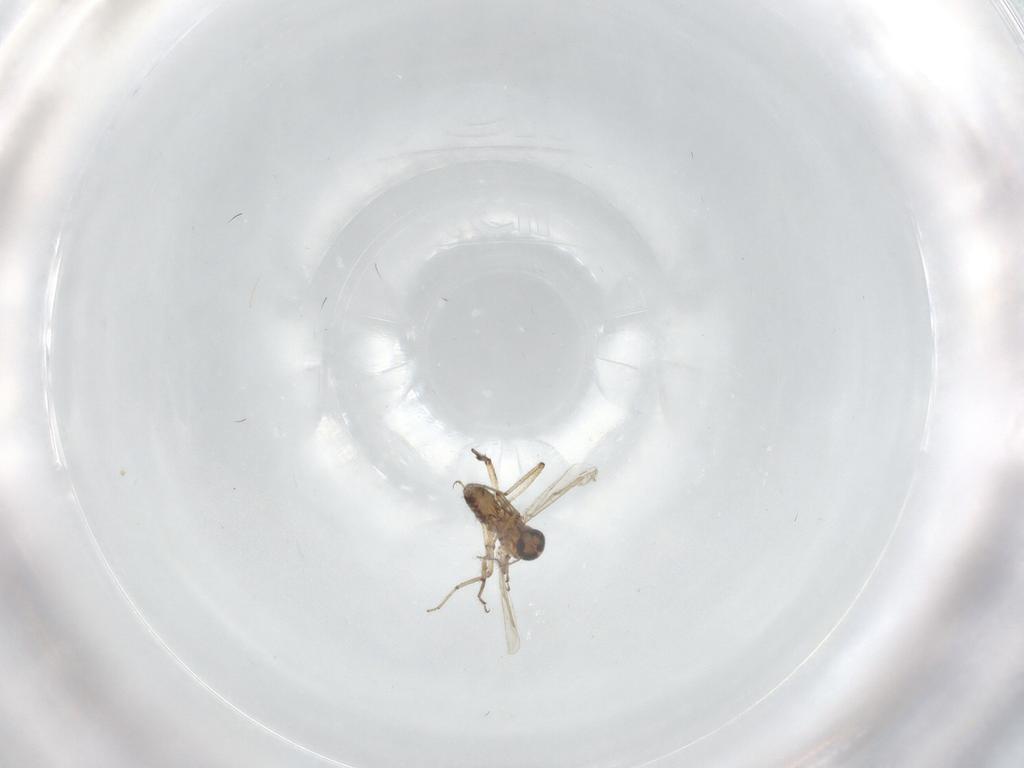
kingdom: Animalia
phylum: Arthropoda
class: Insecta
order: Diptera
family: Ceratopogonidae
